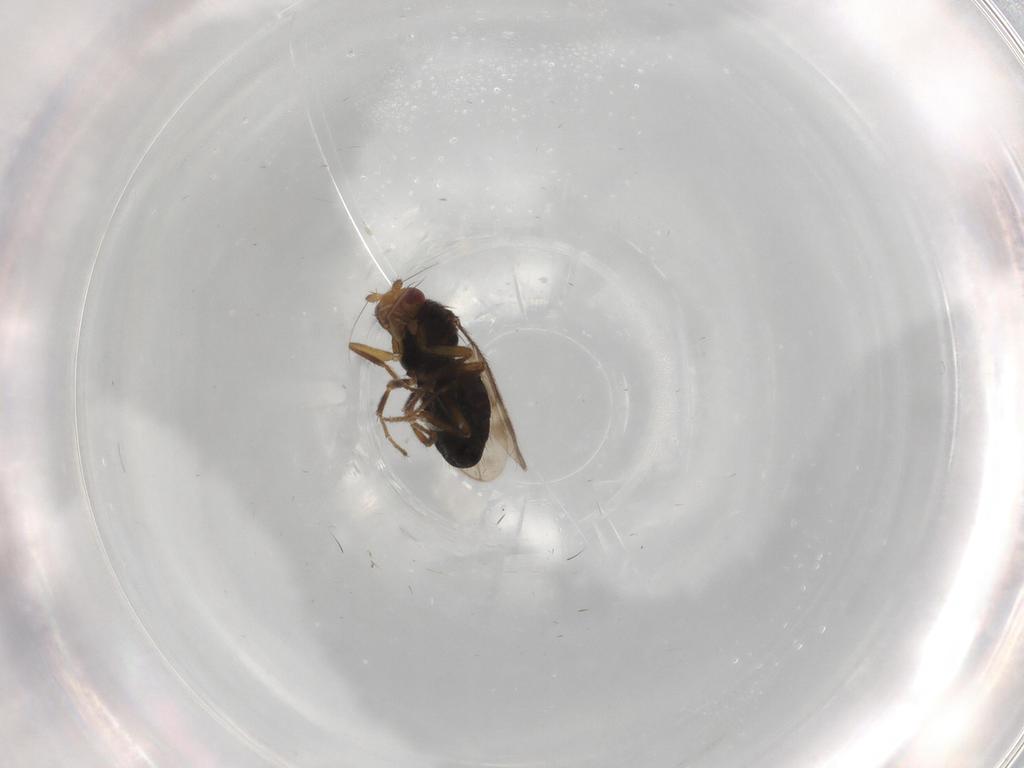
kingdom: Animalia
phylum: Arthropoda
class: Insecta
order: Diptera
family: Sphaeroceridae
